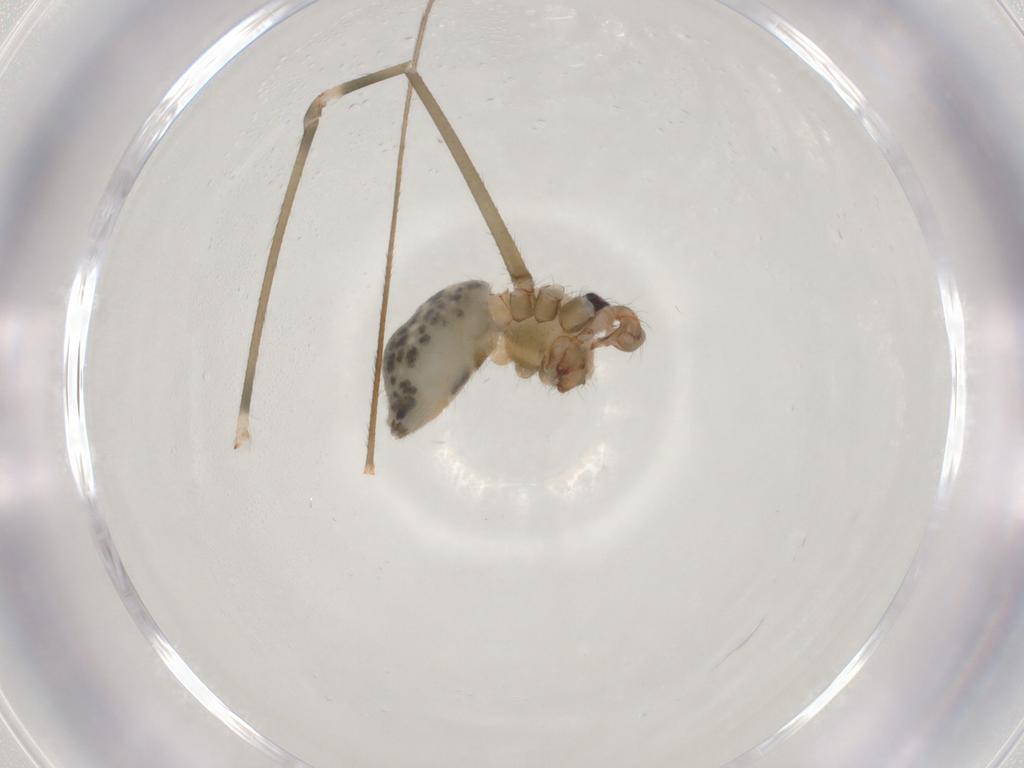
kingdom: Animalia
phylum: Arthropoda
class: Arachnida
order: Araneae
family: Pholcidae
